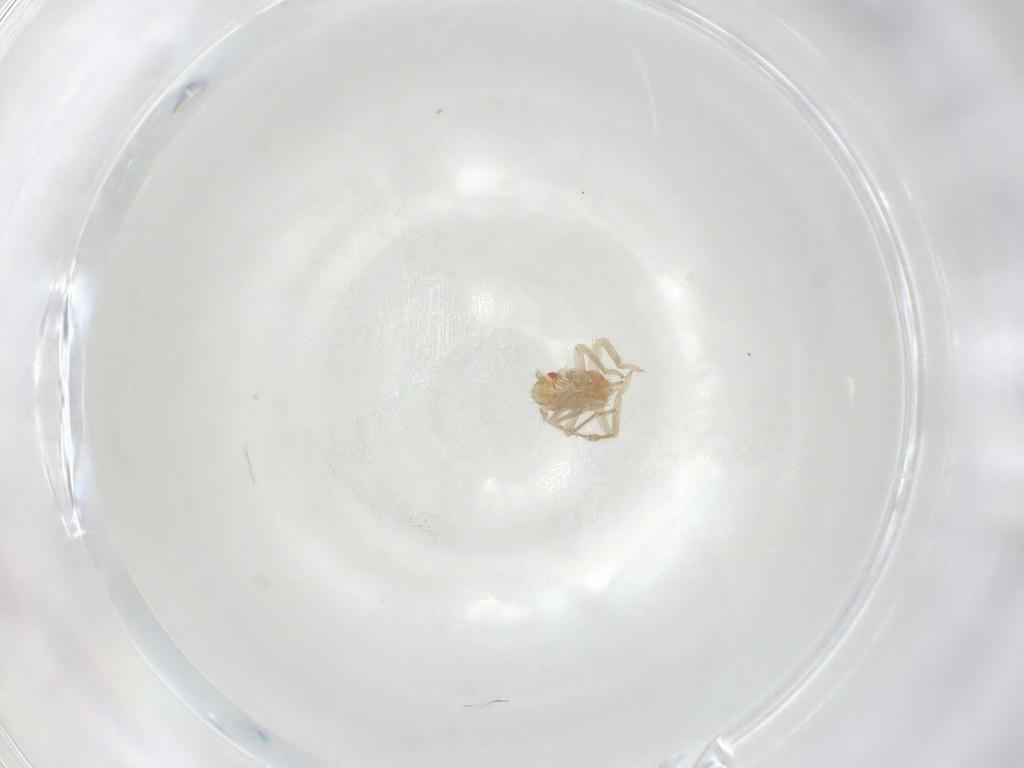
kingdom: Animalia
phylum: Arthropoda
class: Insecta
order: Hemiptera
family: Miridae
